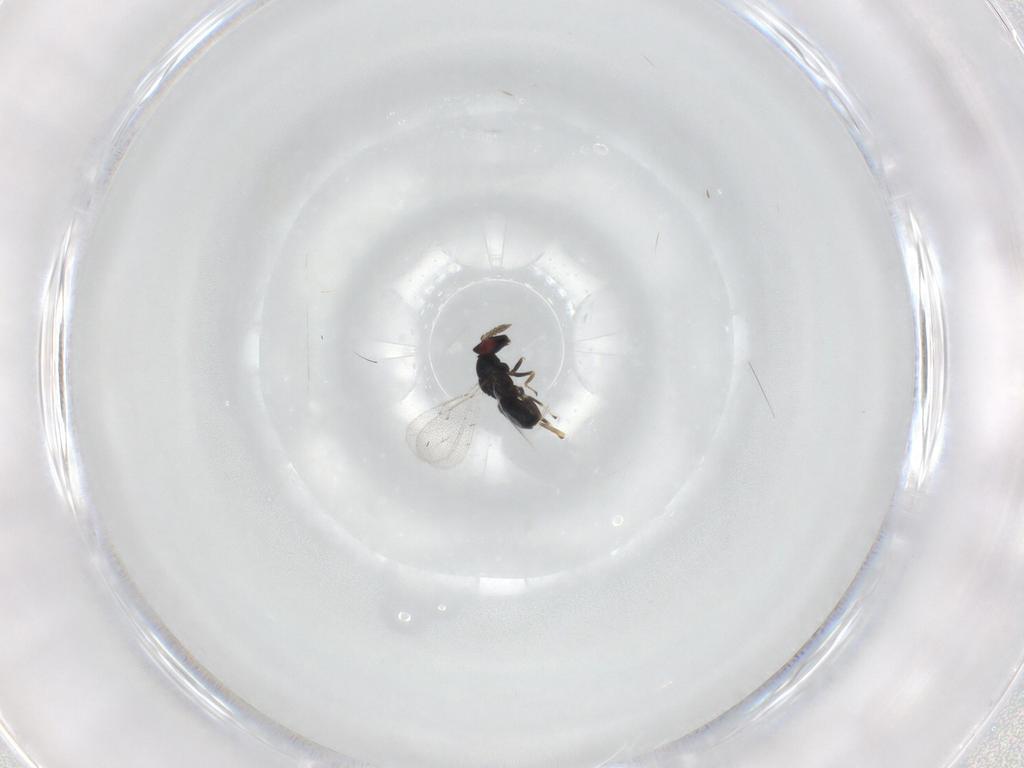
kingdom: Animalia
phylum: Arthropoda
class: Insecta
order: Hymenoptera
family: Eulophidae
